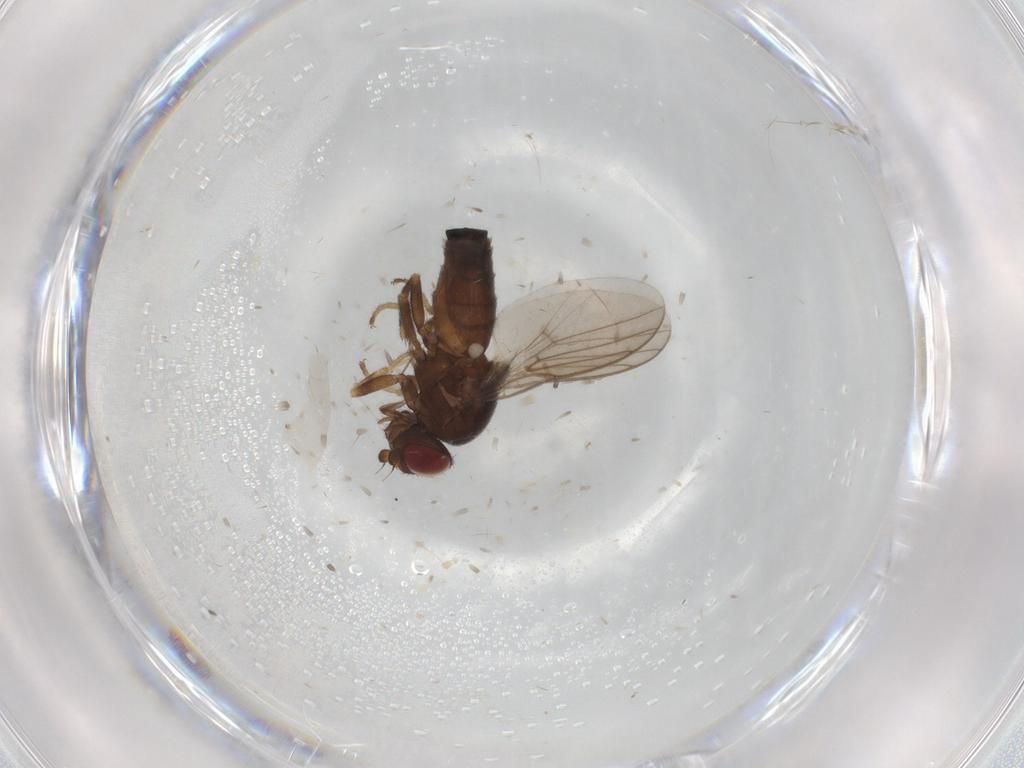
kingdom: Animalia
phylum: Arthropoda
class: Insecta
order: Diptera
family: Chloropidae
